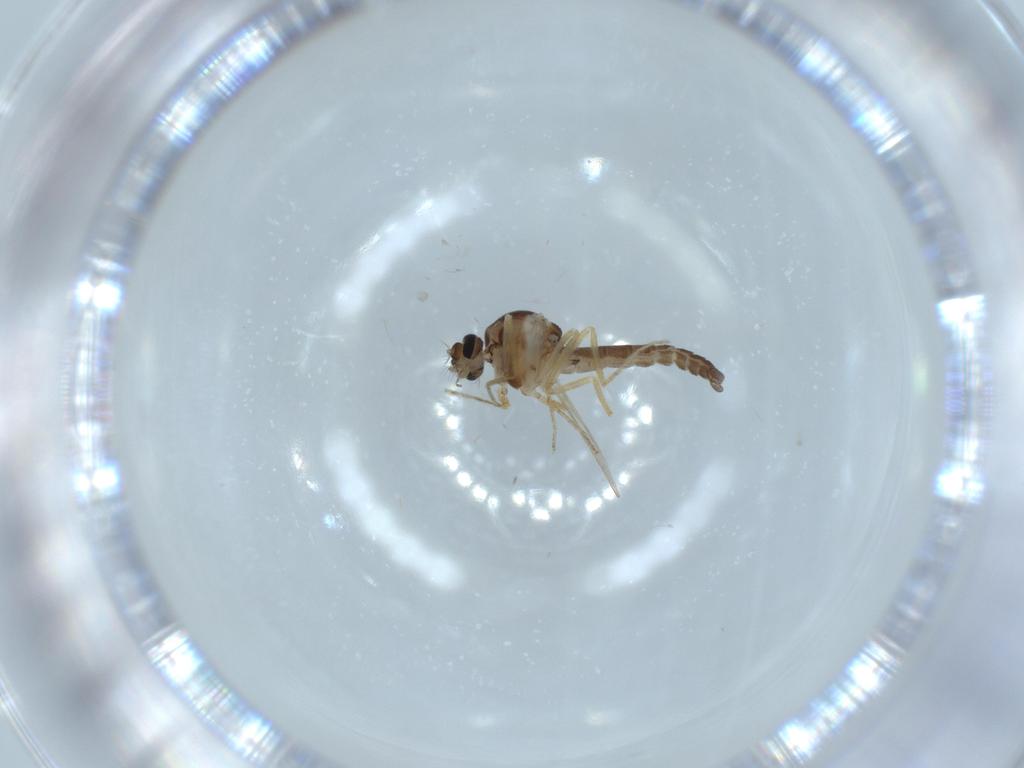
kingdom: Animalia
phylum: Arthropoda
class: Insecta
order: Diptera
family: Ceratopogonidae
